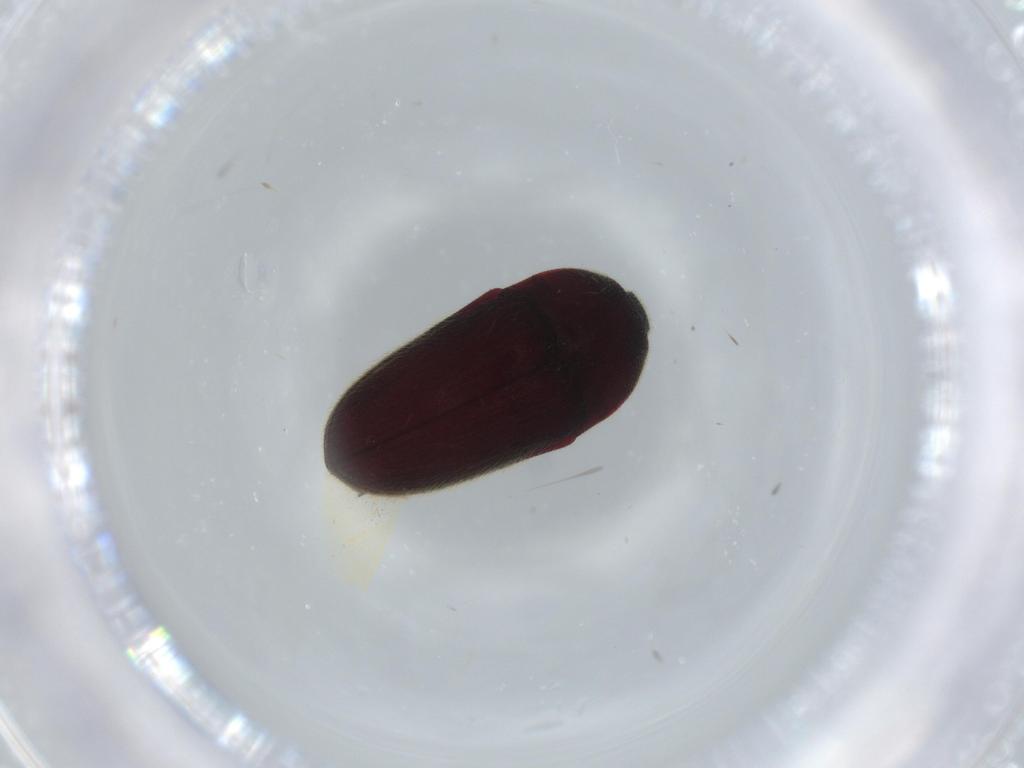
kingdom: Animalia
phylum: Arthropoda
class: Insecta
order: Coleoptera
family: Throscidae
